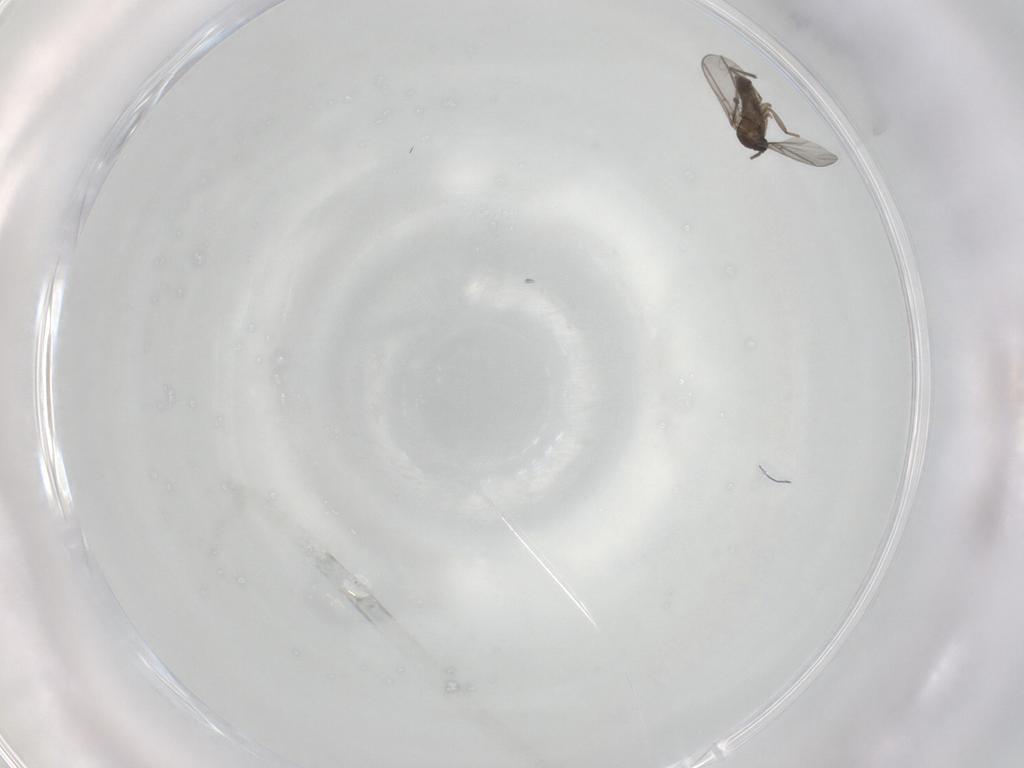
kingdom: Animalia
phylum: Arthropoda
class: Insecta
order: Diptera
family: Sciaridae
